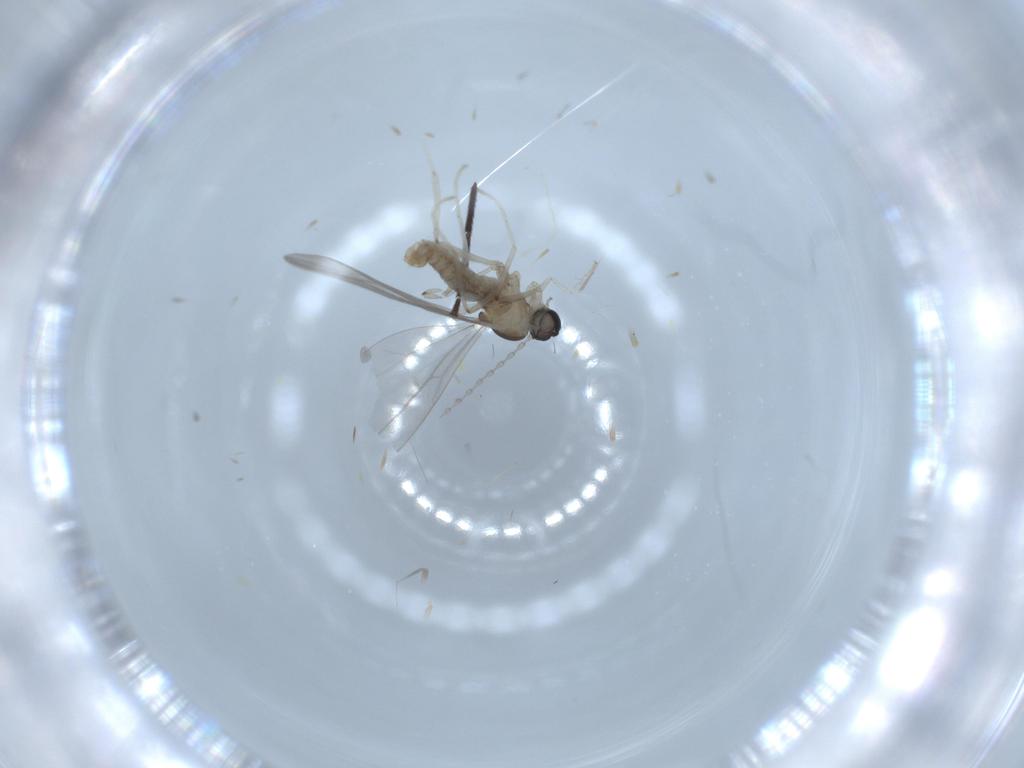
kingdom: Animalia
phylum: Arthropoda
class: Insecta
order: Diptera
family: Cecidomyiidae
